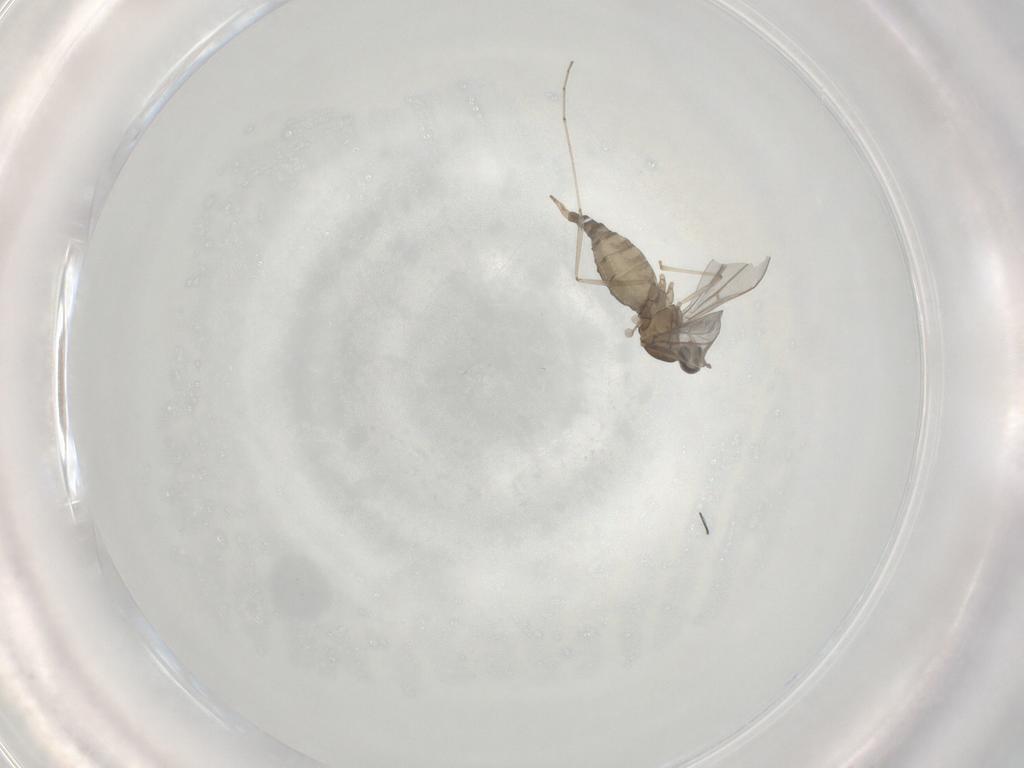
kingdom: Animalia
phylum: Arthropoda
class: Insecta
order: Diptera
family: Cecidomyiidae
